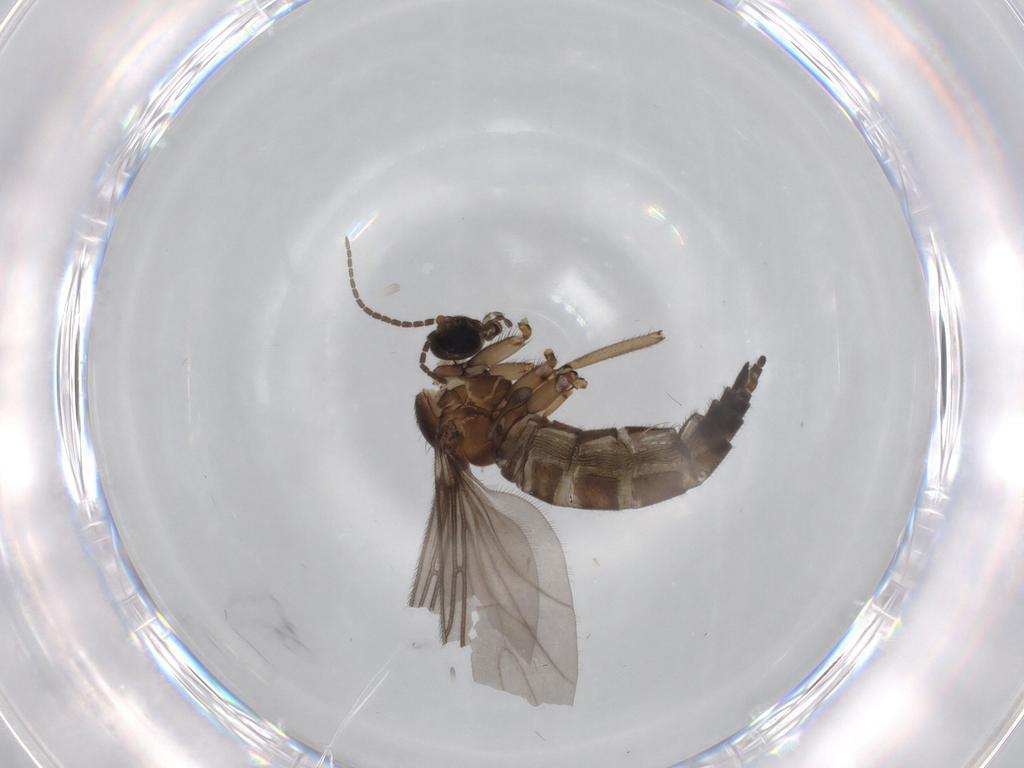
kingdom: Animalia
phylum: Arthropoda
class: Insecta
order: Diptera
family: Cecidomyiidae
